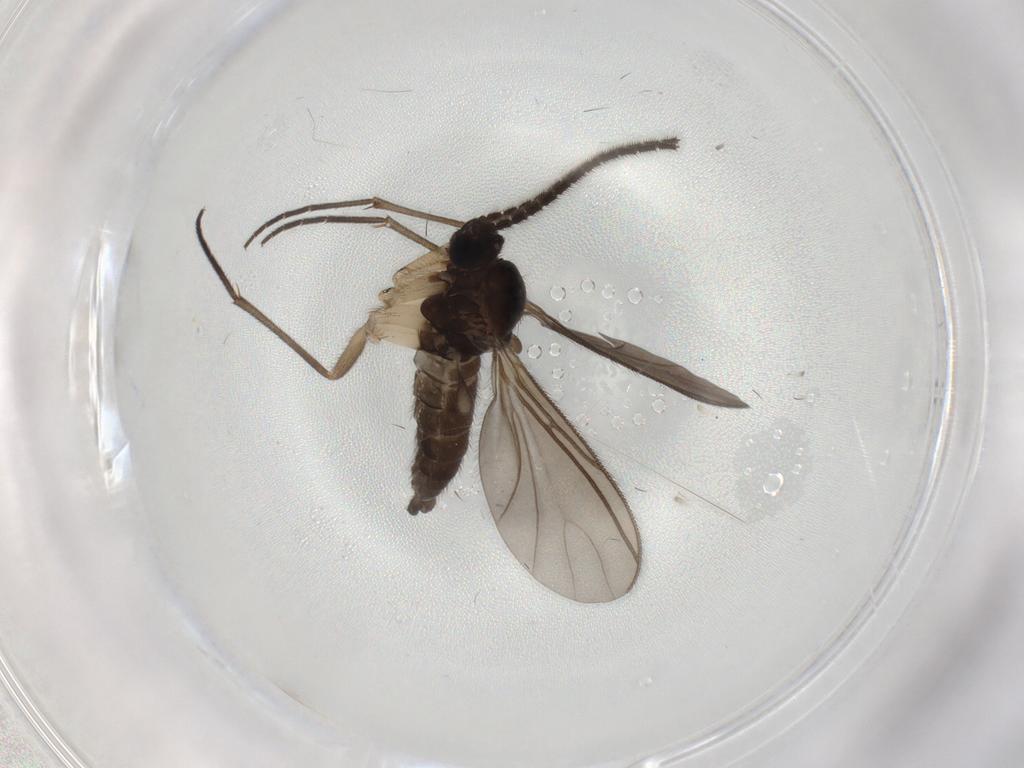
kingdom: Animalia
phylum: Arthropoda
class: Insecta
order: Diptera
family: Sciaridae
